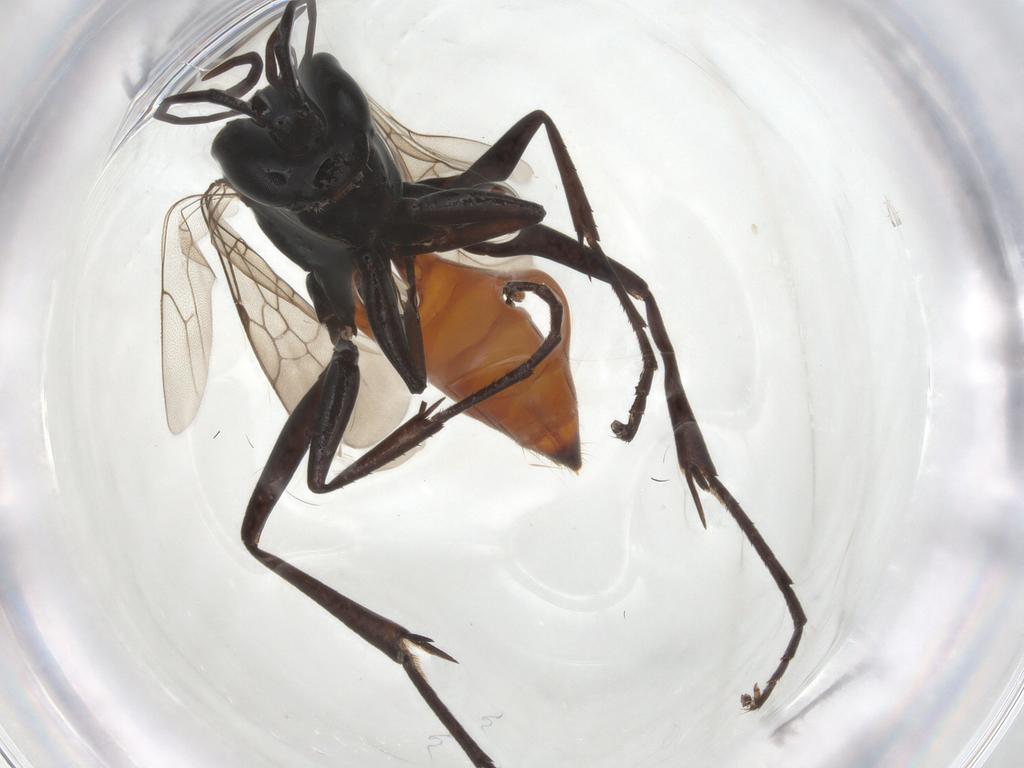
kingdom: Animalia
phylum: Arthropoda
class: Insecta
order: Hymenoptera
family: Pompilidae
